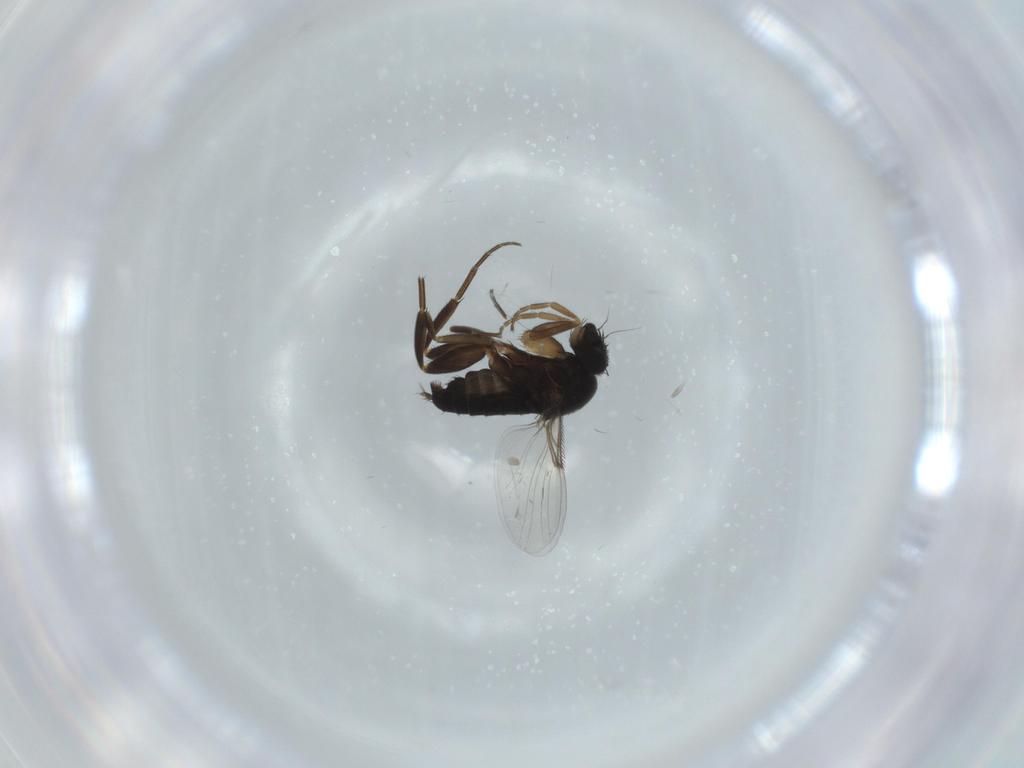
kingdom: Animalia
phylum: Arthropoda
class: Insecta
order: Diptera
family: Phoridae
